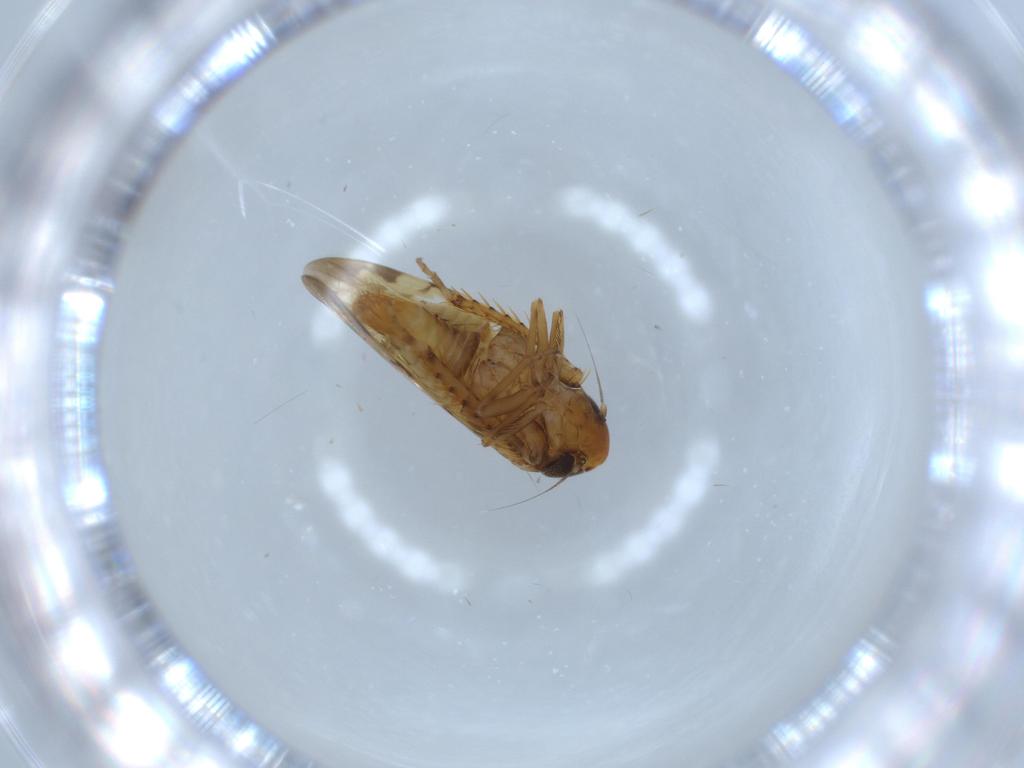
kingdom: Animalia
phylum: Arthropoda
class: Insecta
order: Hemiptera
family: Cicadellidae
